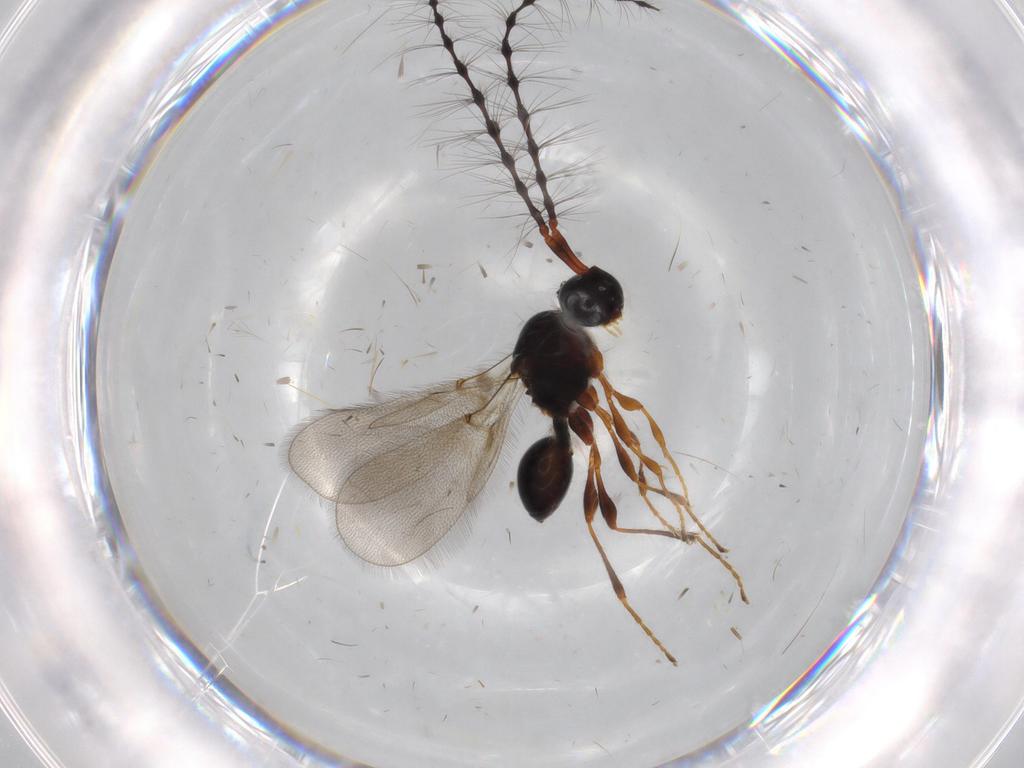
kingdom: Animalia
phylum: Arthropoda
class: Insecta
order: Hymenoptera
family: Diapriidae
